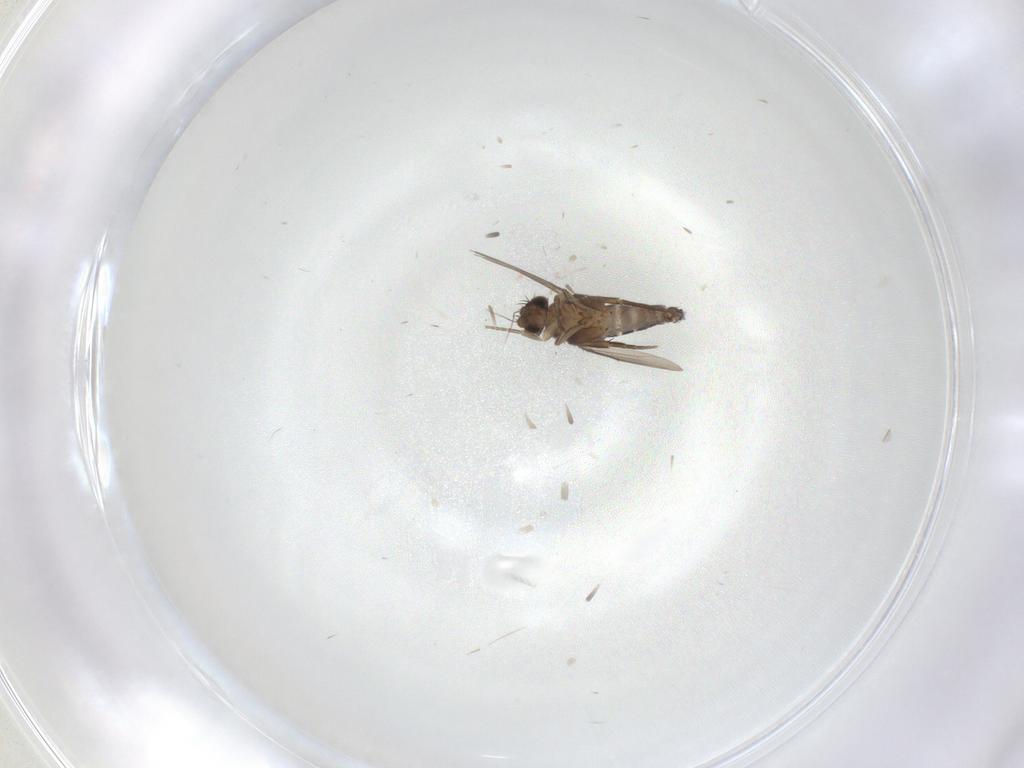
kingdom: Animalia
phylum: Arthropoda
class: Insecta
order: Diptera
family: Phoridae
